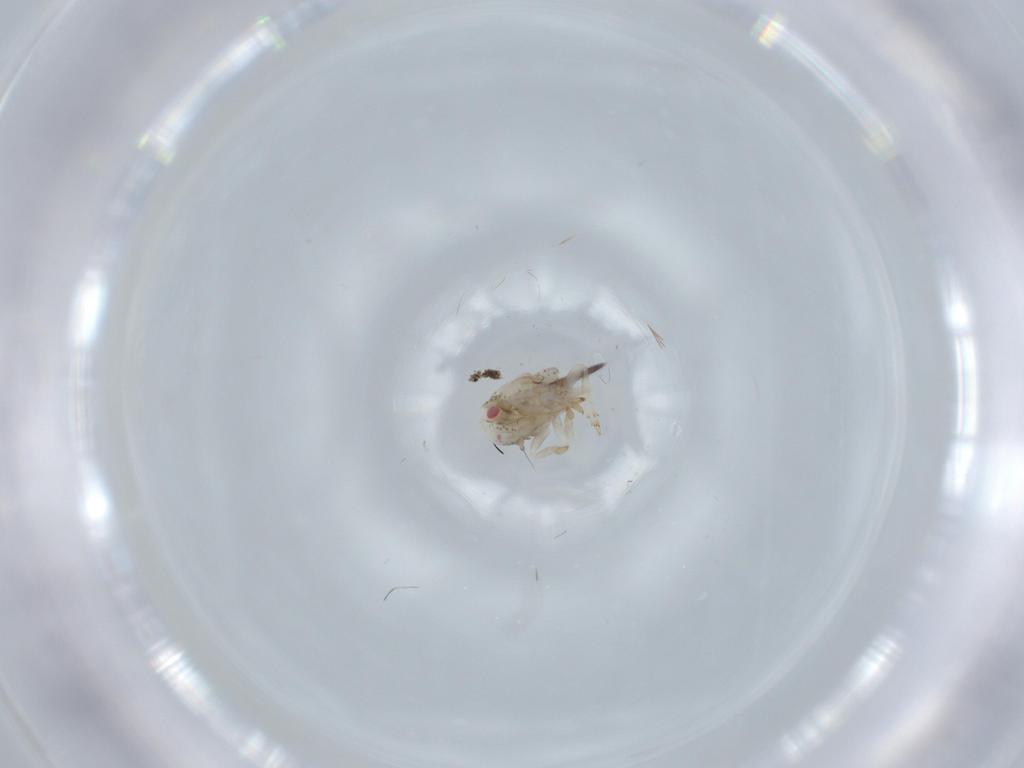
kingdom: Animalia
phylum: Arthropoda
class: Insecta
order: Hemiptera
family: Acanaloniidae
